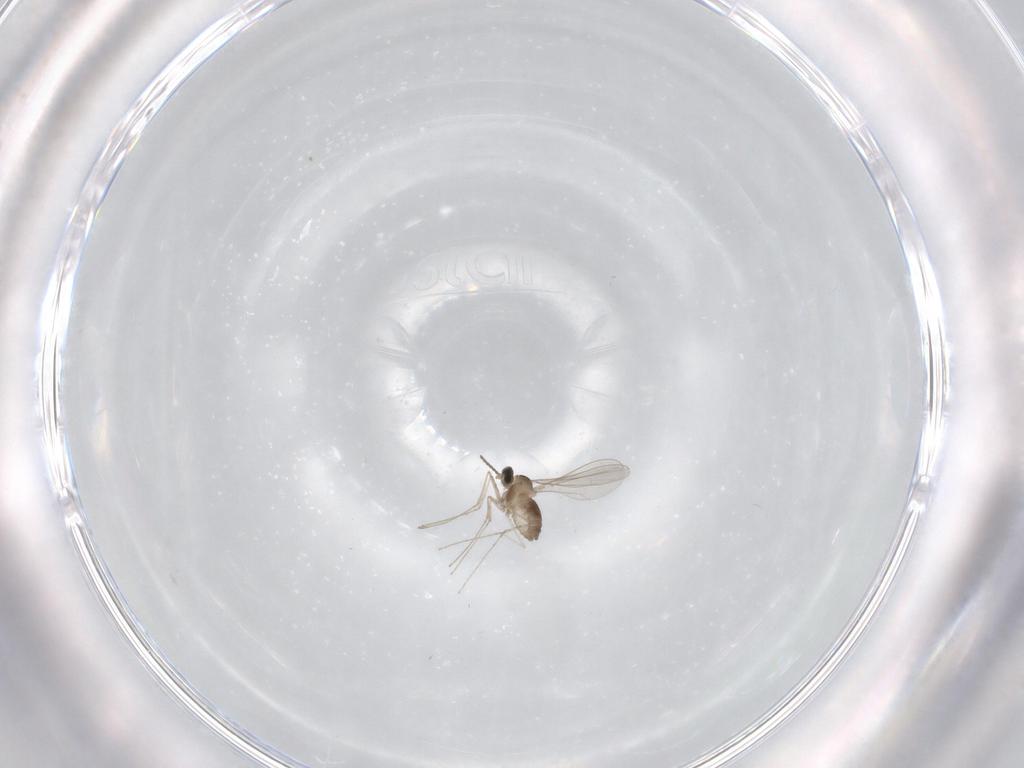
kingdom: Animalia
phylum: Arthropoda
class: Insecta
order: Diptera
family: Cecidomyiidae
